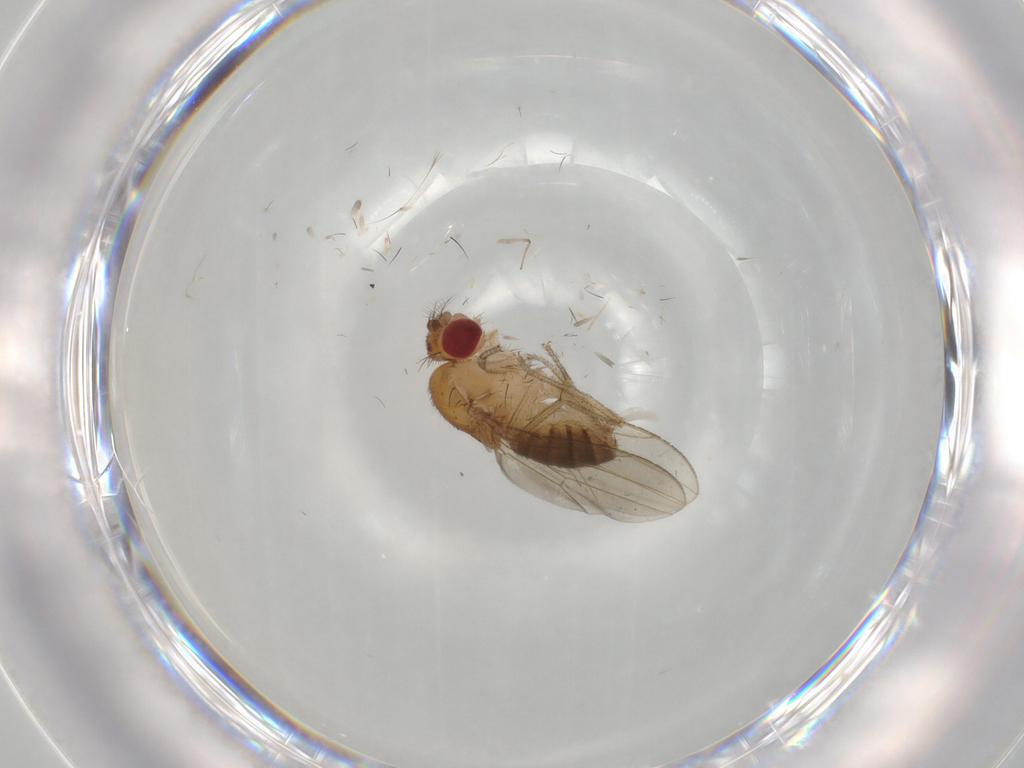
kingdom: Animalia
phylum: Arthropoda
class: Insecta
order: Diptera
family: Drosophilidae
